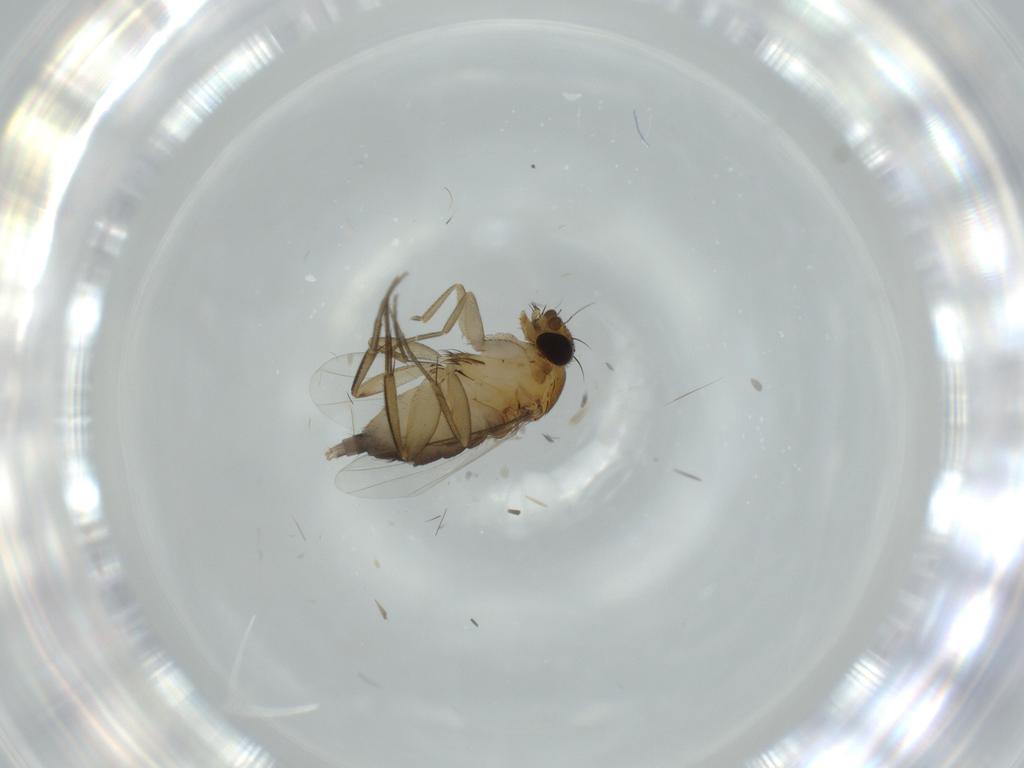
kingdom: Animalia
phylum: Arthropoda
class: Insecta
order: Diptera
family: Phoridae
